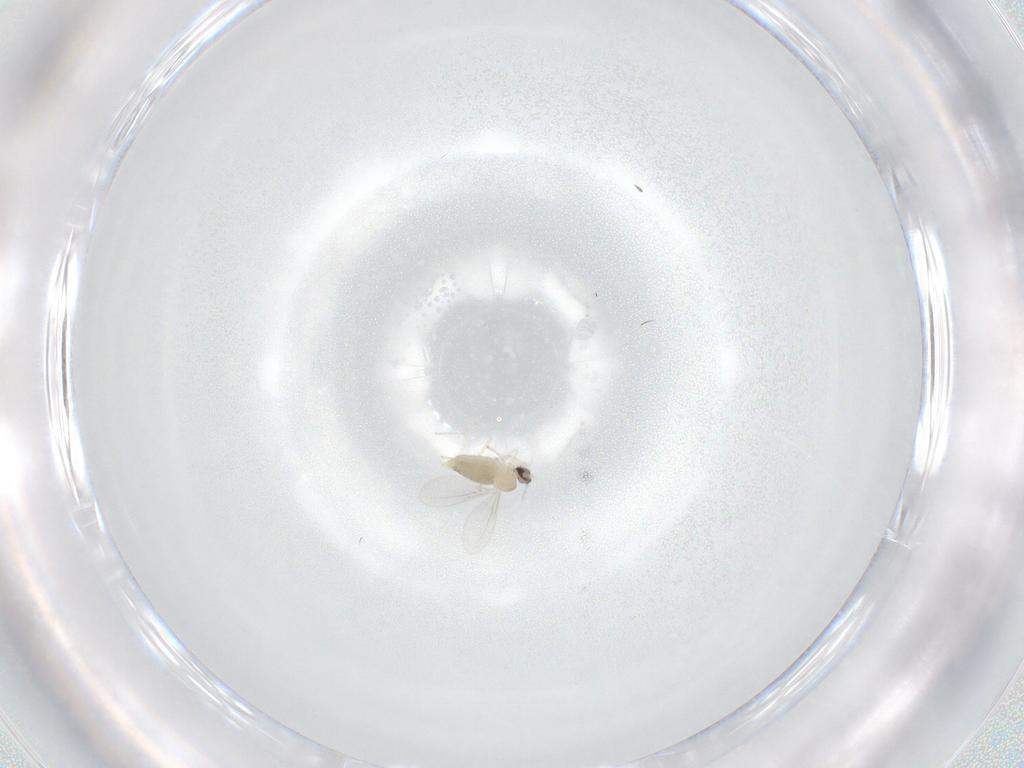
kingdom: Animalia
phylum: Arthropoda
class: Insecta
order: Diptera
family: Cecidomyiidae
